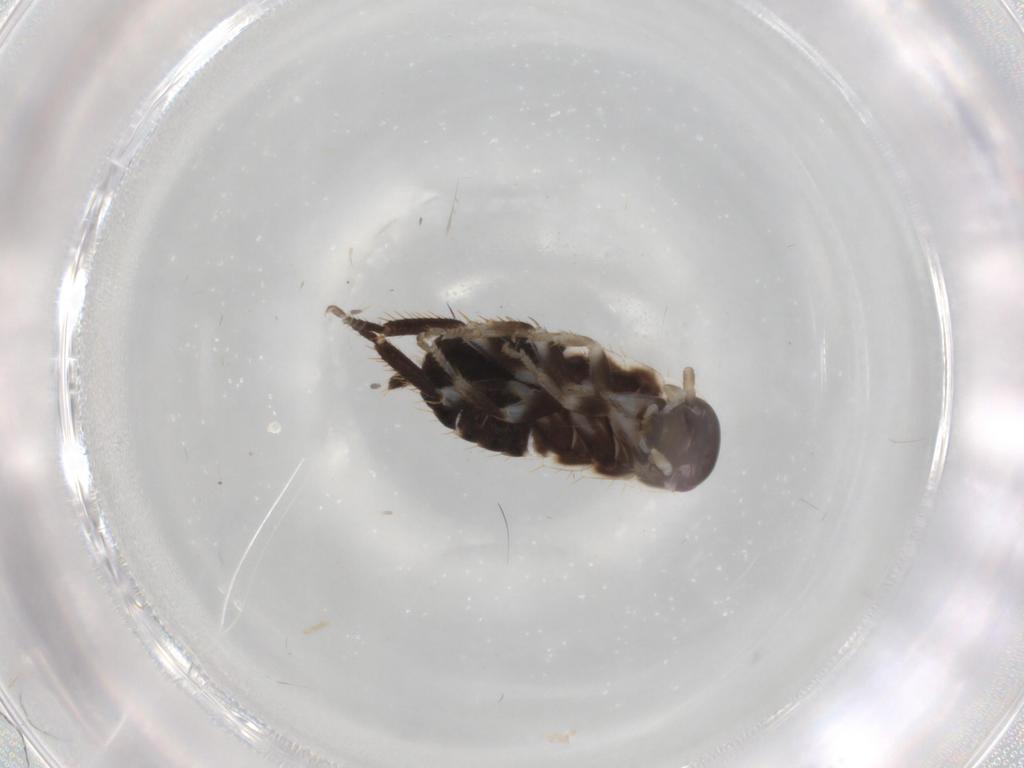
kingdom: Animalia
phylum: Arthropoda
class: Insecta
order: Blattodea
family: Ectobiidae
